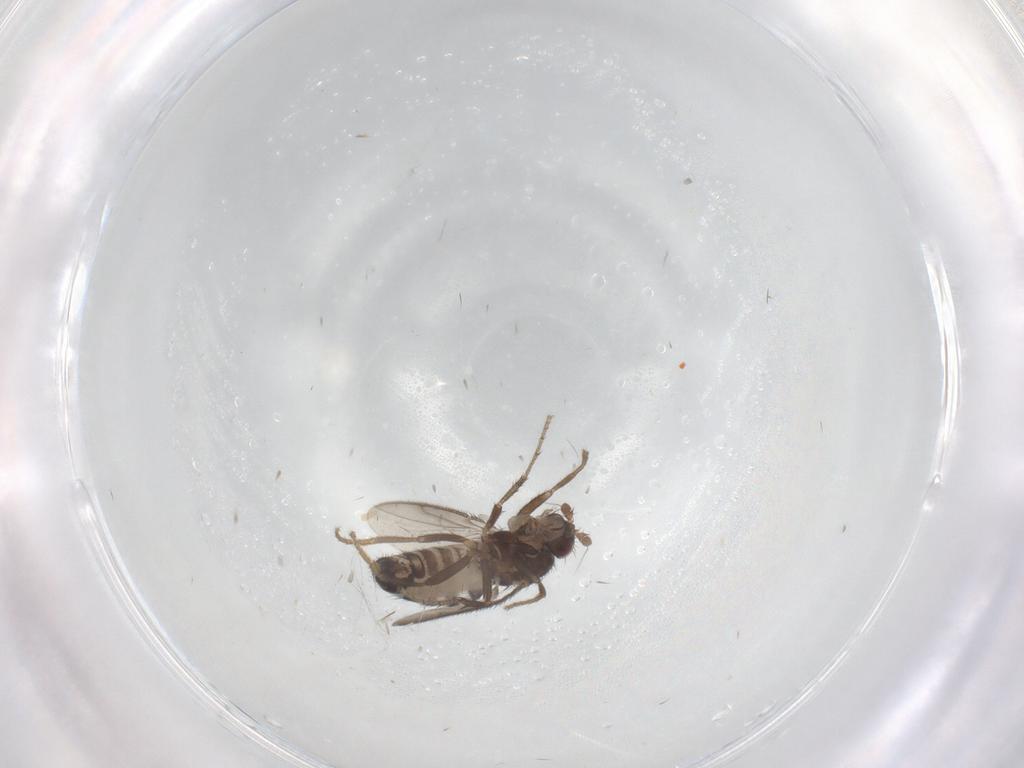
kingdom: Animalia
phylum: Arthropoda
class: Insecta
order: Diptera
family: Sphaeroceridae
